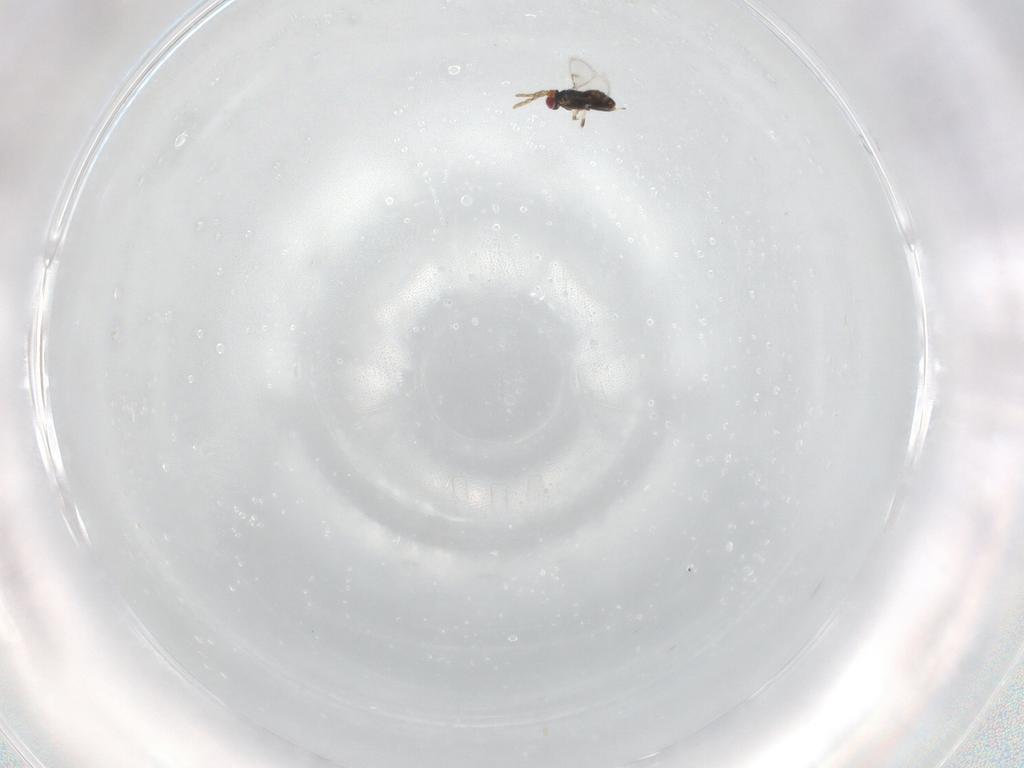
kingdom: Animalia
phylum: Arthropoda
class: Insecta
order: Hymenoptera
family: Azotidae
